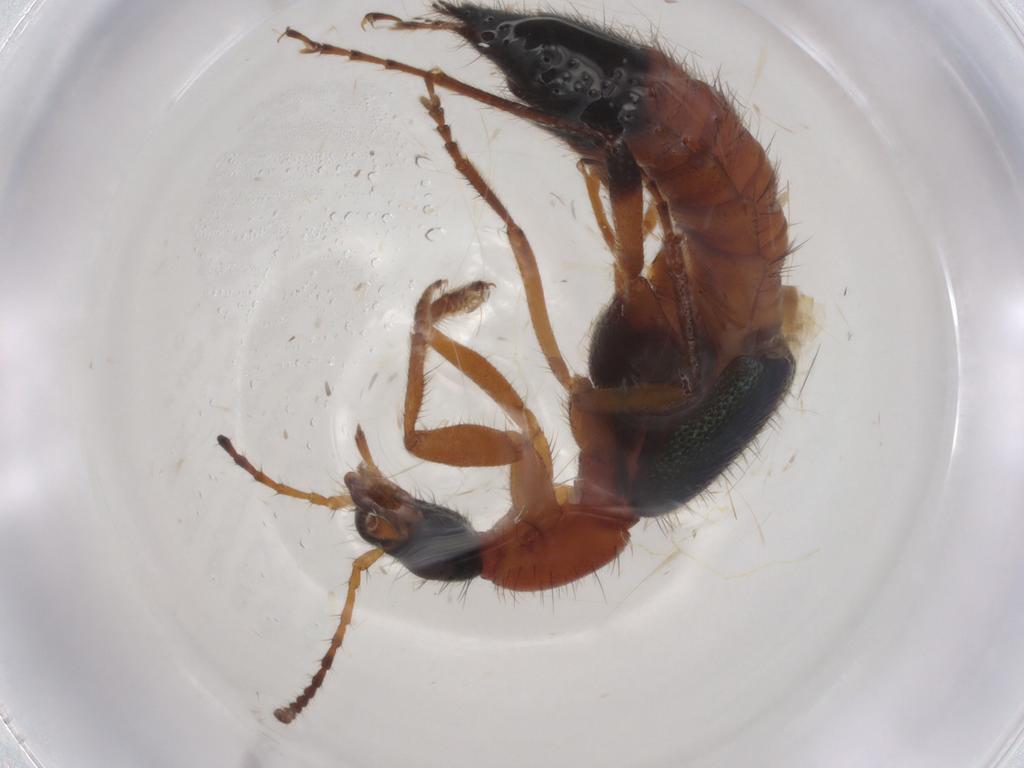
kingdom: Animalia
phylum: Arthropoda
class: Insecta
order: Coleoptera
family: Staphylinidae
